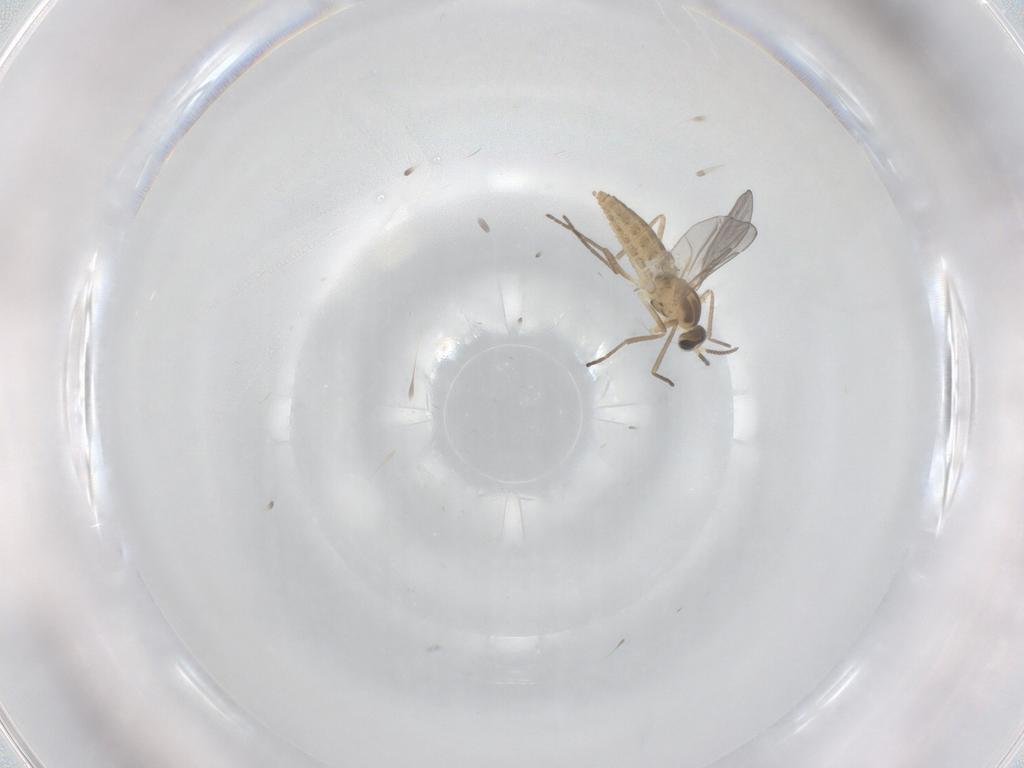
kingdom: Animalia
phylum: Arthropoda
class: Insecta
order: Diptera
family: Cecidomyiidae
